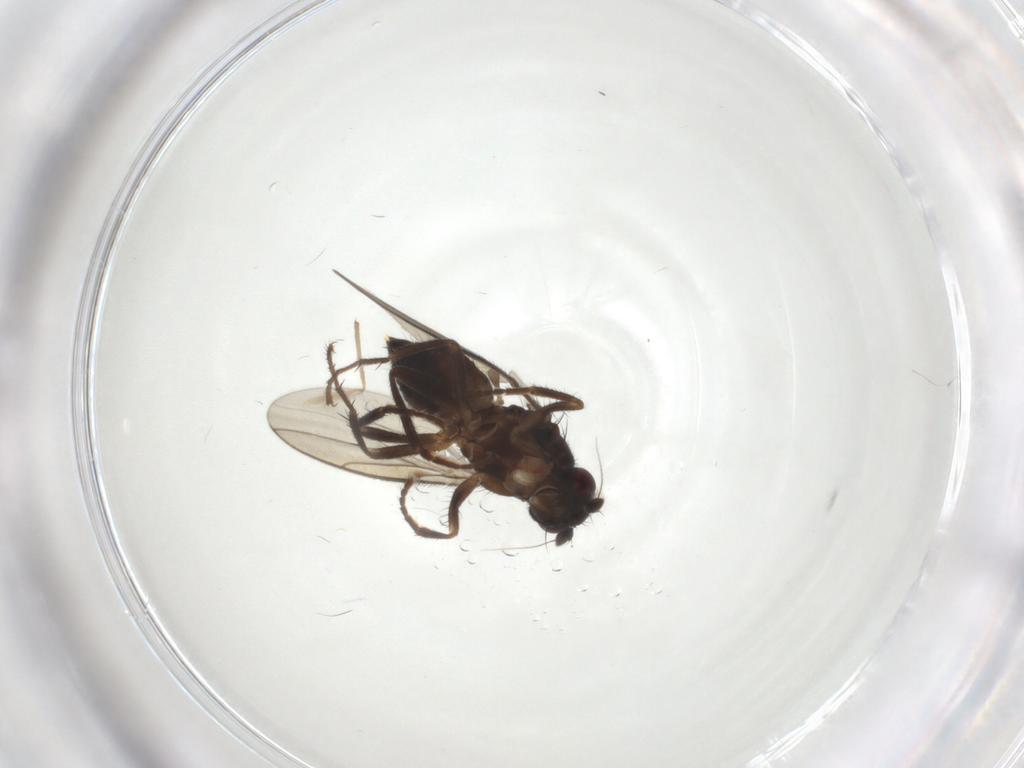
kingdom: Animalia
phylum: Arthropoda
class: Insecta
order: Diptera
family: Sphaeroceridae
